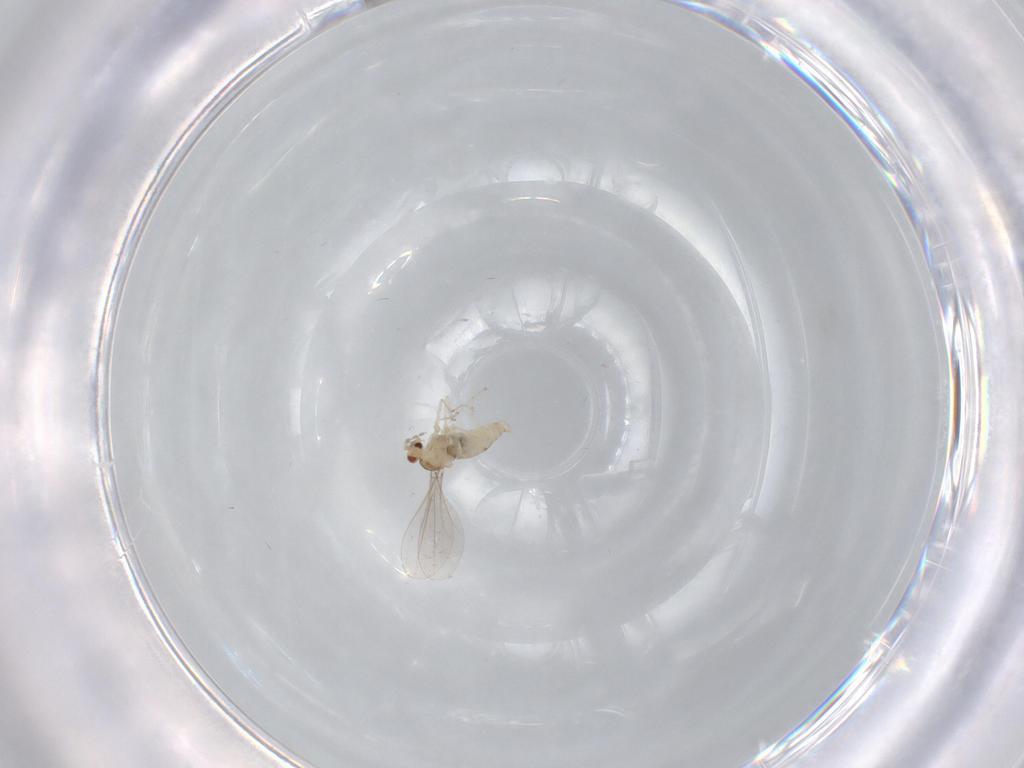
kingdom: Animalia
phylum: Arthropoda
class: Insecta
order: Diptera
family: Cecidomyiidae
